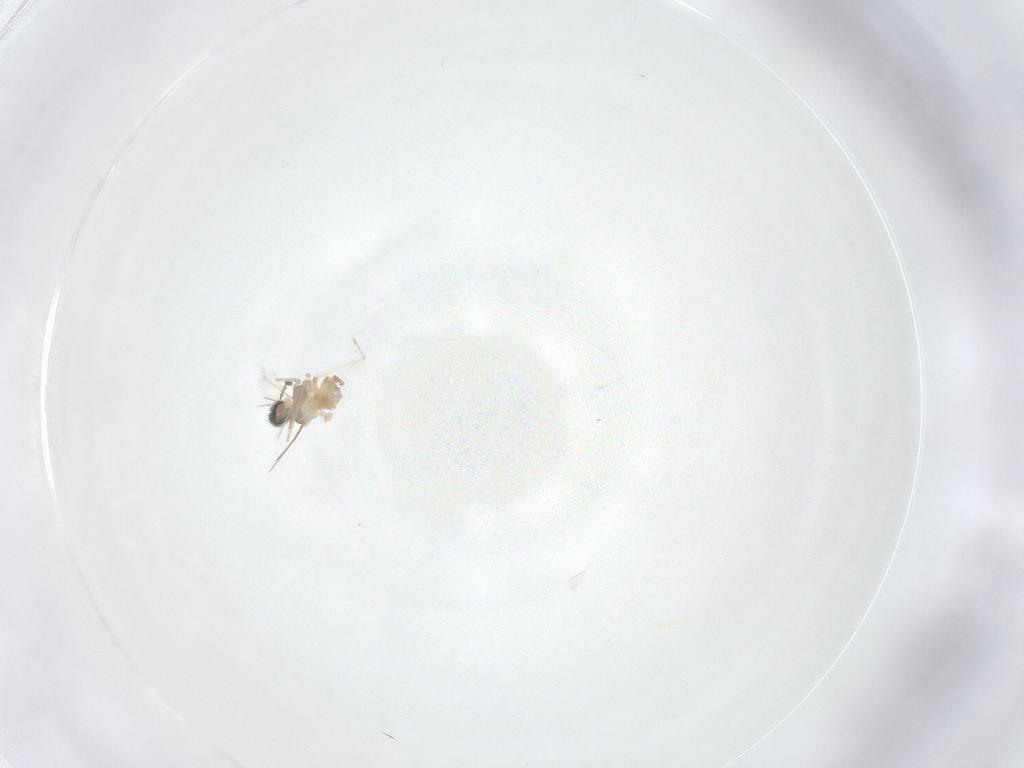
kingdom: Animalia
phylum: Arthropoda
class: Insecta
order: Diptera
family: Cecidomyiidae
